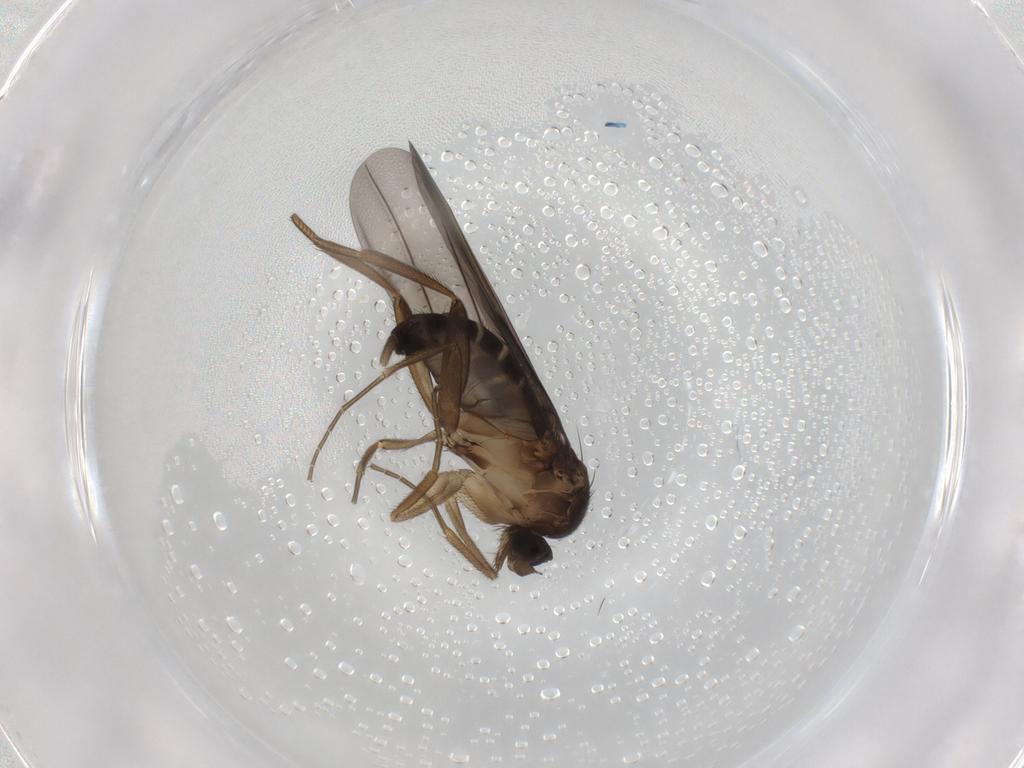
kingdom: Animalia
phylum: Arthropoda
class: Insecta
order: Diptera
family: Phoridae
